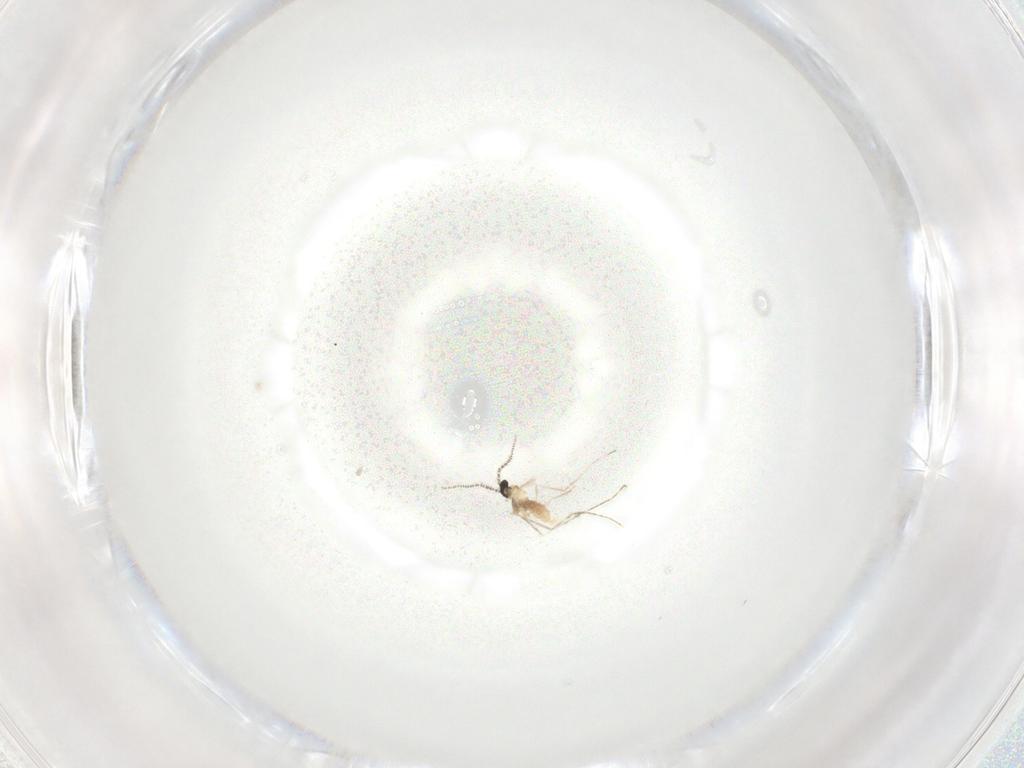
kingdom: Animalia
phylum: Arthropoda
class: Insecta
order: Diptera
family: Cecidomyiidae
